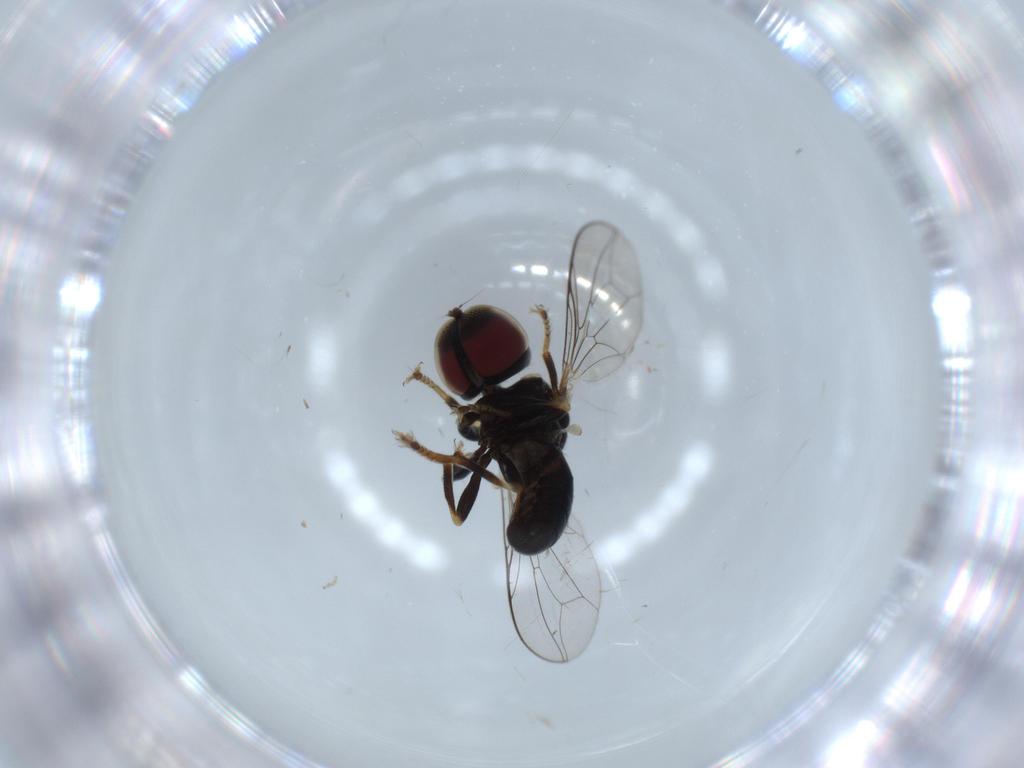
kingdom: Animalia
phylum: Arthropoda
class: Insecta
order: Diptera
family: Pipunculidae
